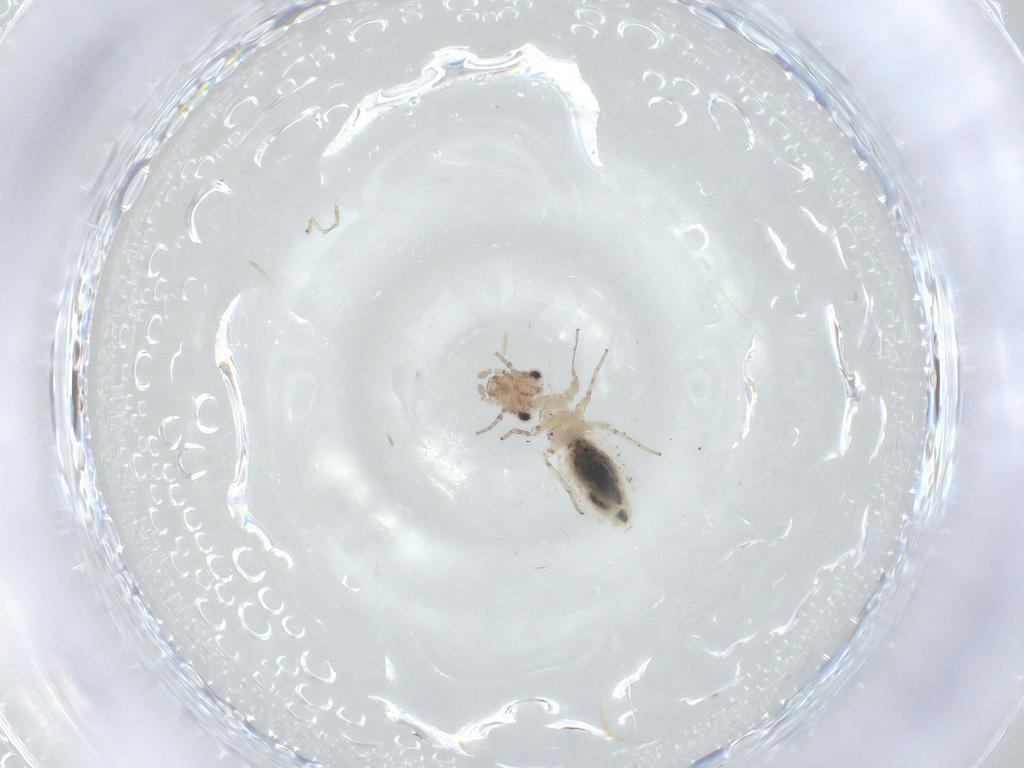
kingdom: Animalia
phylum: Arthropoda
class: Insecta
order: Psocodea
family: Trogiidae
